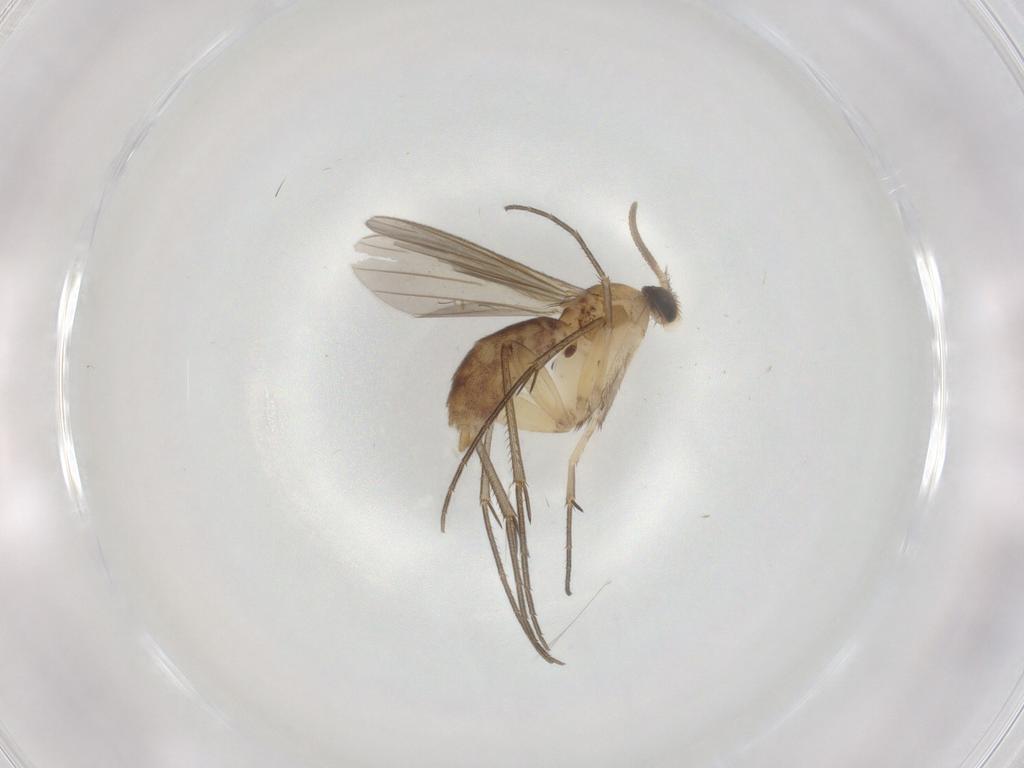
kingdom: Animalia
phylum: Arthropoda
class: Insecta
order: Diptera
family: Mycetophilidae
